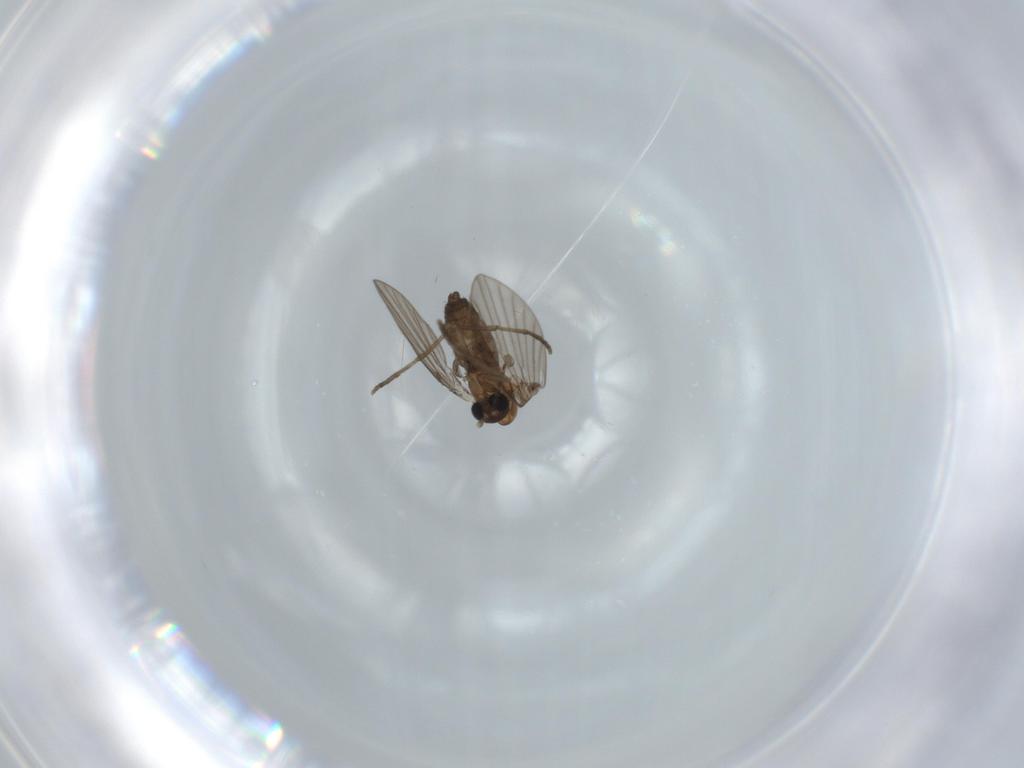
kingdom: Animalia
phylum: Arthropoda
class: Insecta
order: Diptera
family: Psychodidae
